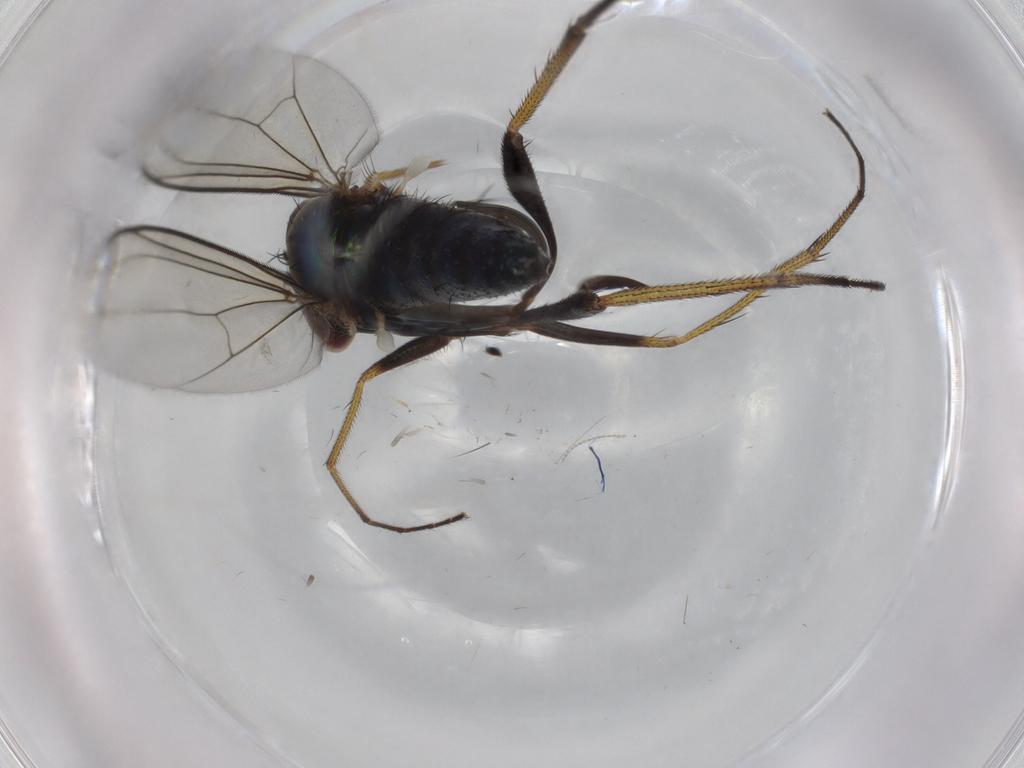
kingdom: Animalia
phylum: Arthropoda
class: Insecta
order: Diptera
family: Dolichopodidae
